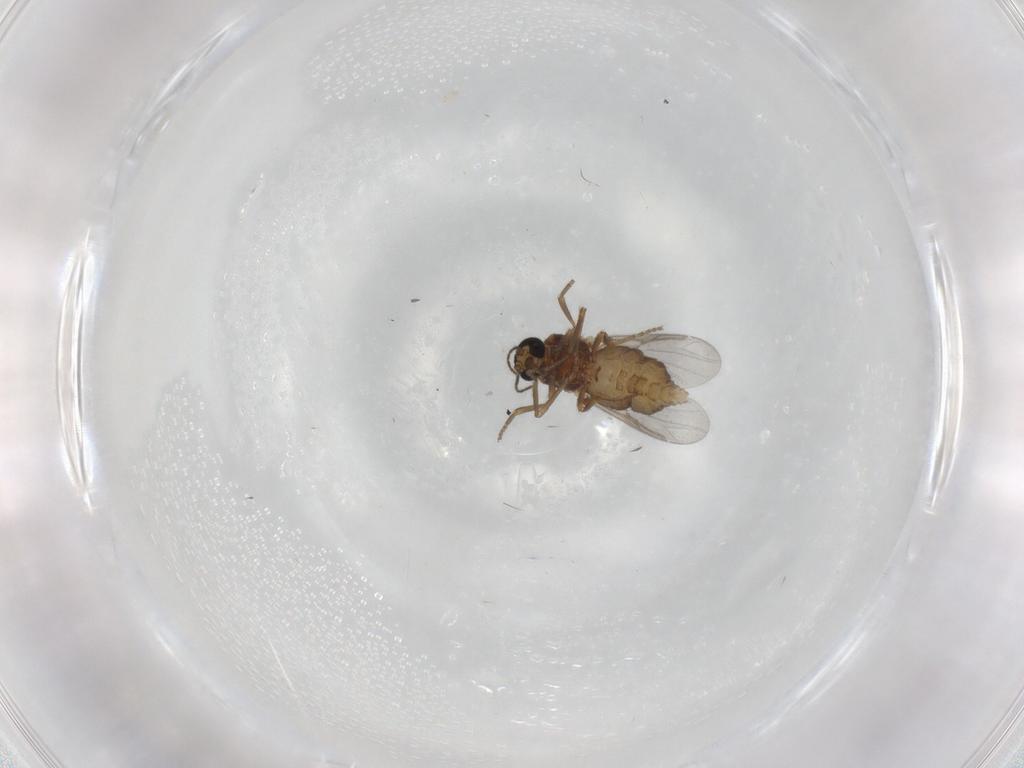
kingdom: Animalia
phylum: Arthropoda
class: Insecta
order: Diptera
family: Ceratopogonidae
